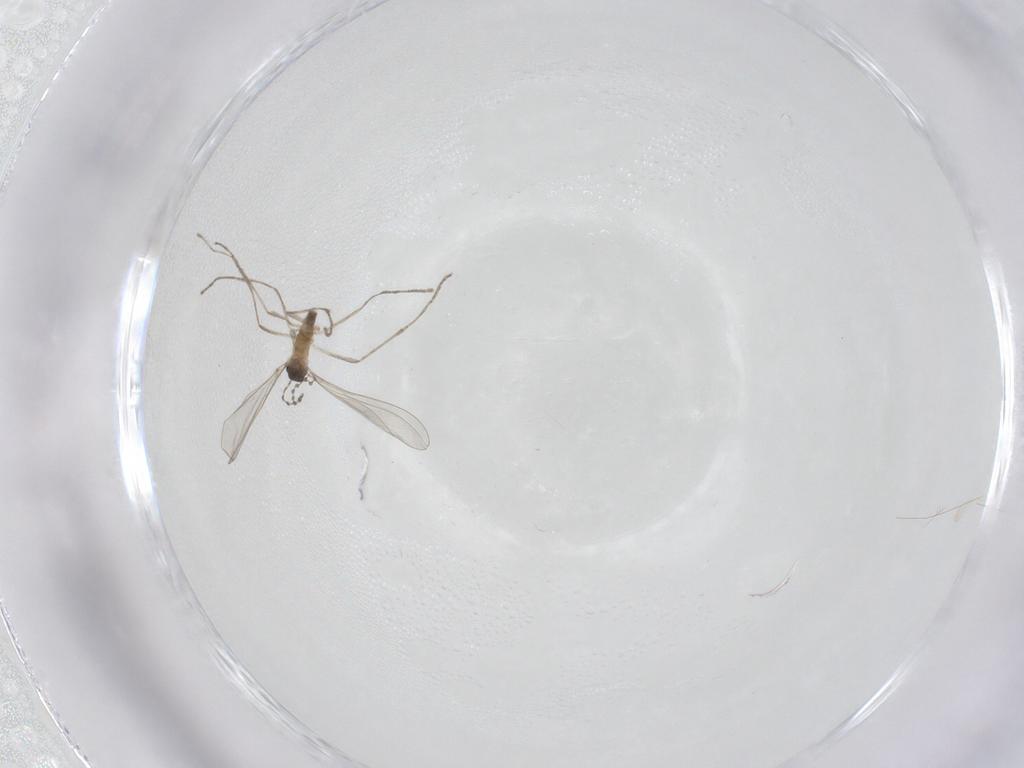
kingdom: Animalia
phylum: Arthropoda
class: Insecta
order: Diptera
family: Cecidomyiidae
